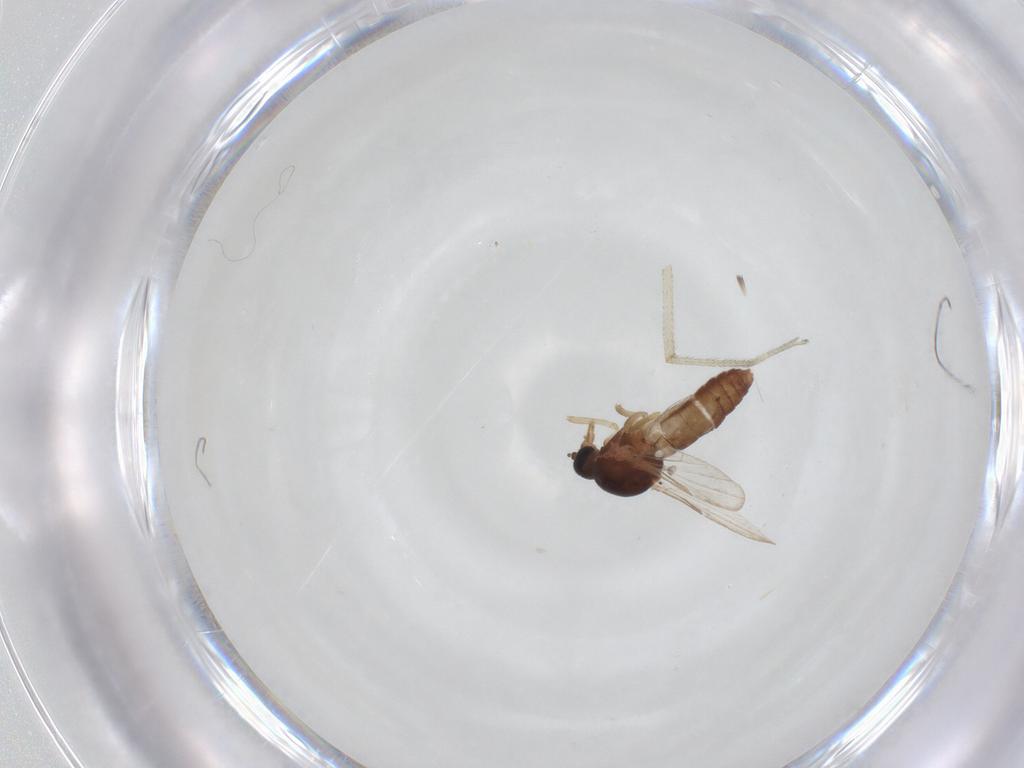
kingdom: Animalia
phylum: Arthropoda
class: Insecta
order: Diptera
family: Ceratopogonidae
